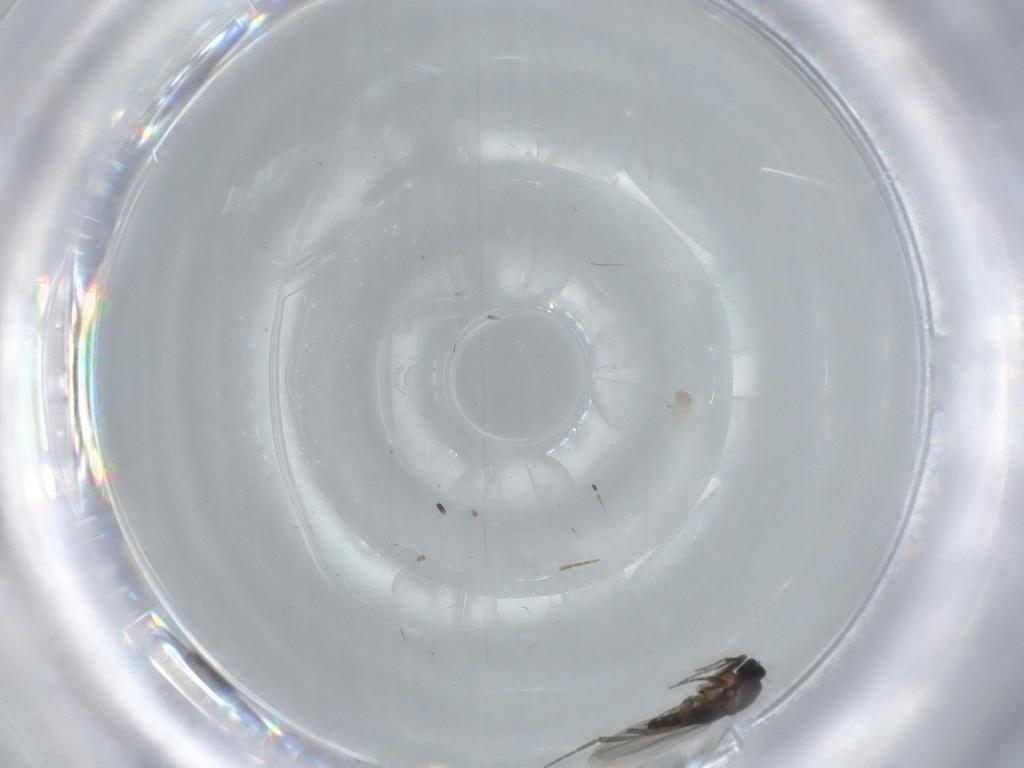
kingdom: Animalia
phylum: Arthropoda
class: Insecta
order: Diptera
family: Phoridae
